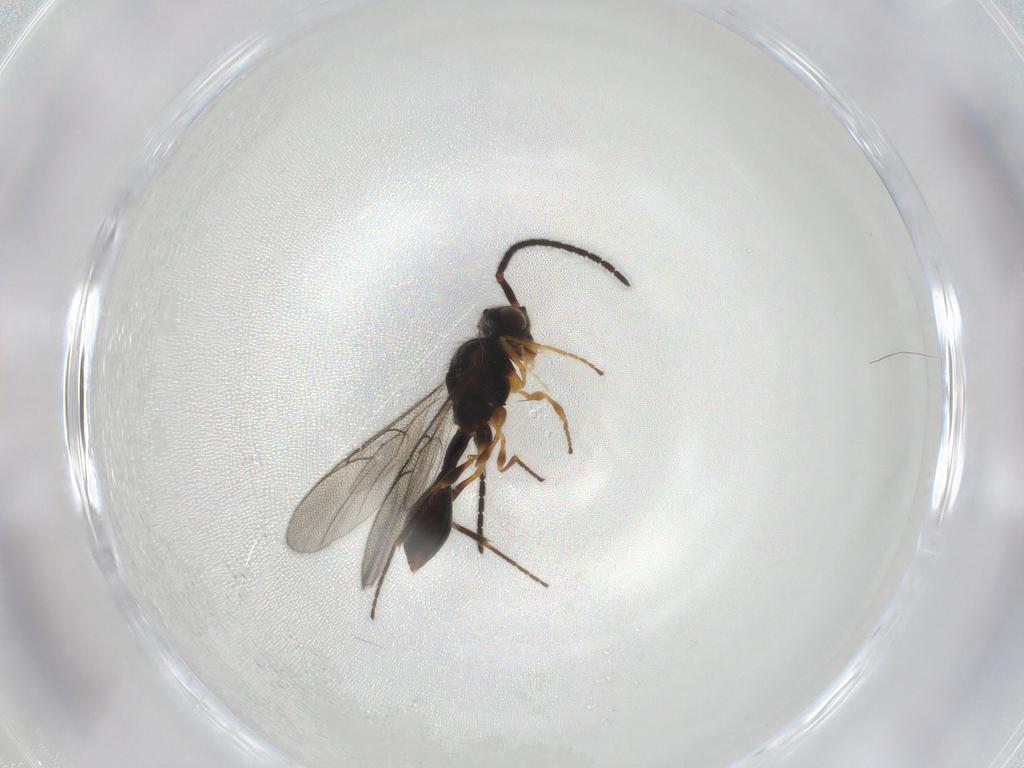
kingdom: Animalia
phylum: Arthropoda
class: Insecta
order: Hymenoptera
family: Diapriidae
